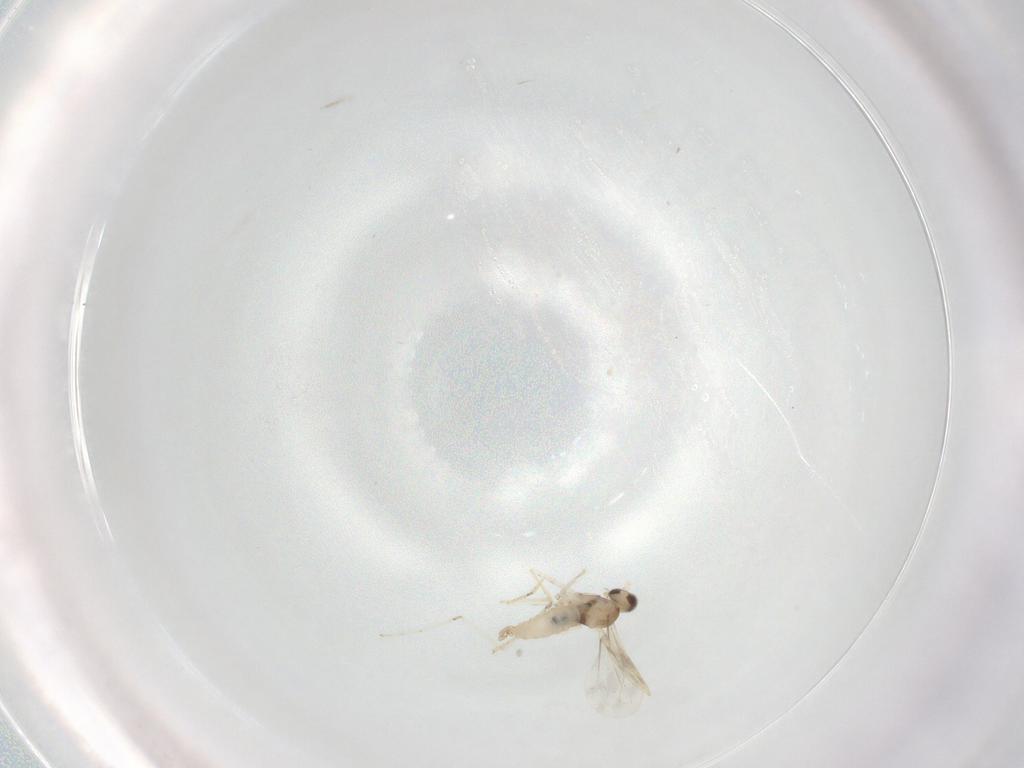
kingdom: Animalia
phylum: Arthropoda
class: Insecta
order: Diptera
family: Cecidomyiidae
